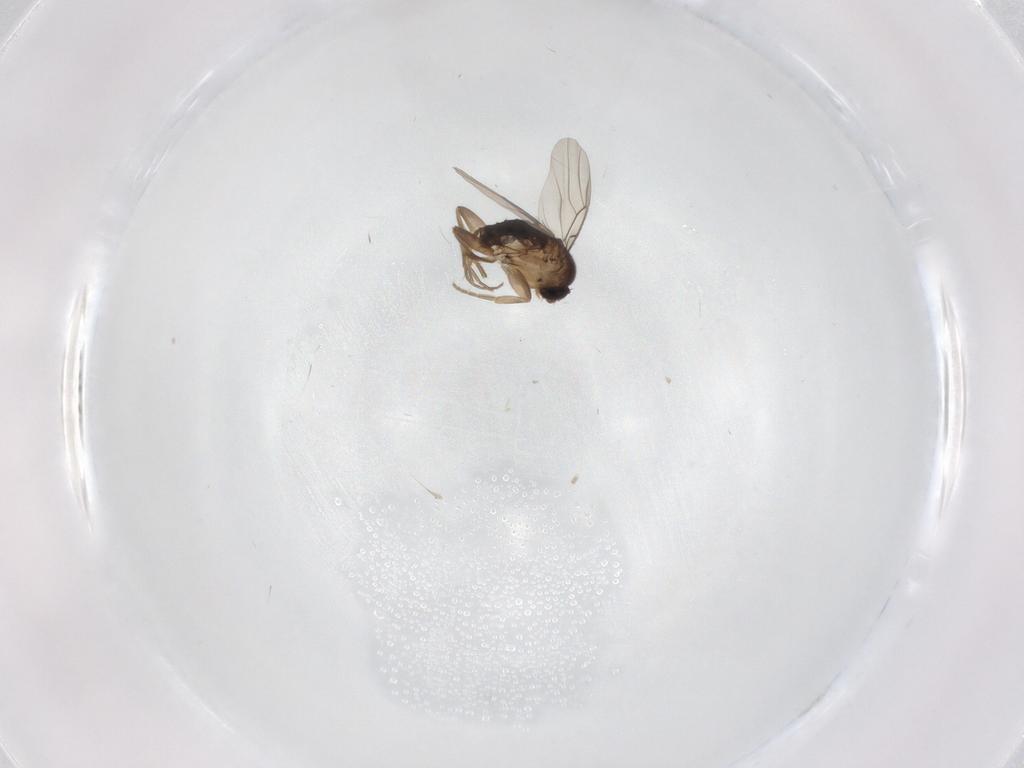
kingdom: Animalia
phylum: Arthropoda
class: Insecta
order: Diptera
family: Phoridae
